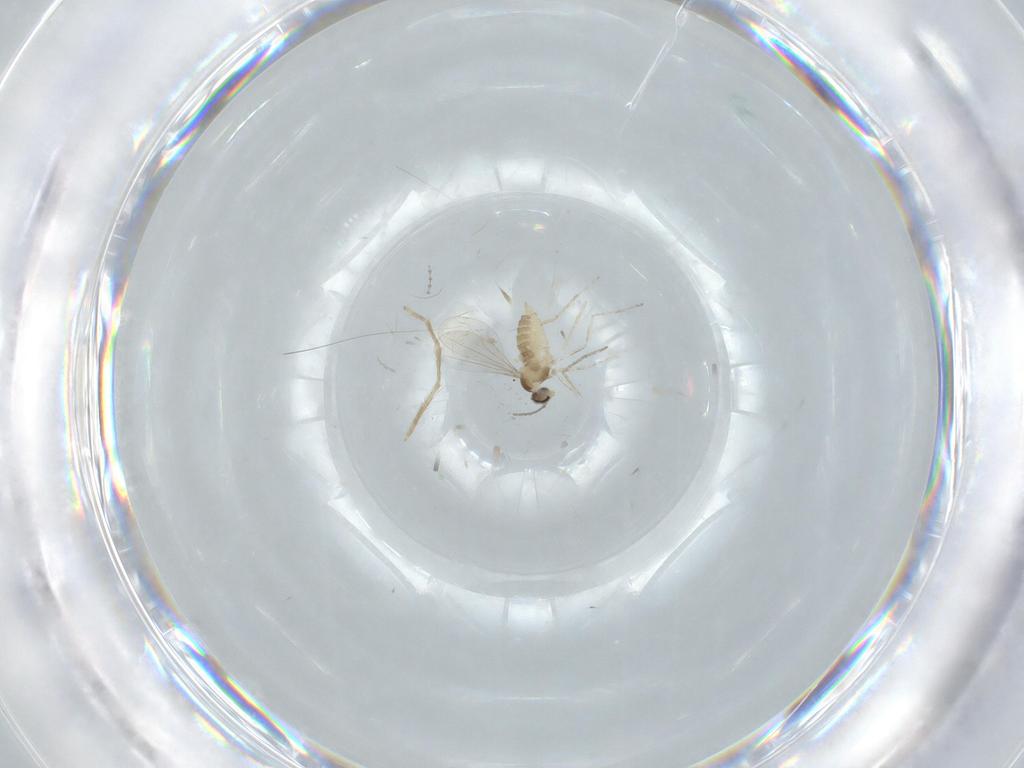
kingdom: Animalia
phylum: Arthropoda
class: Insecta
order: Diptera
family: Cecidomyiidae
